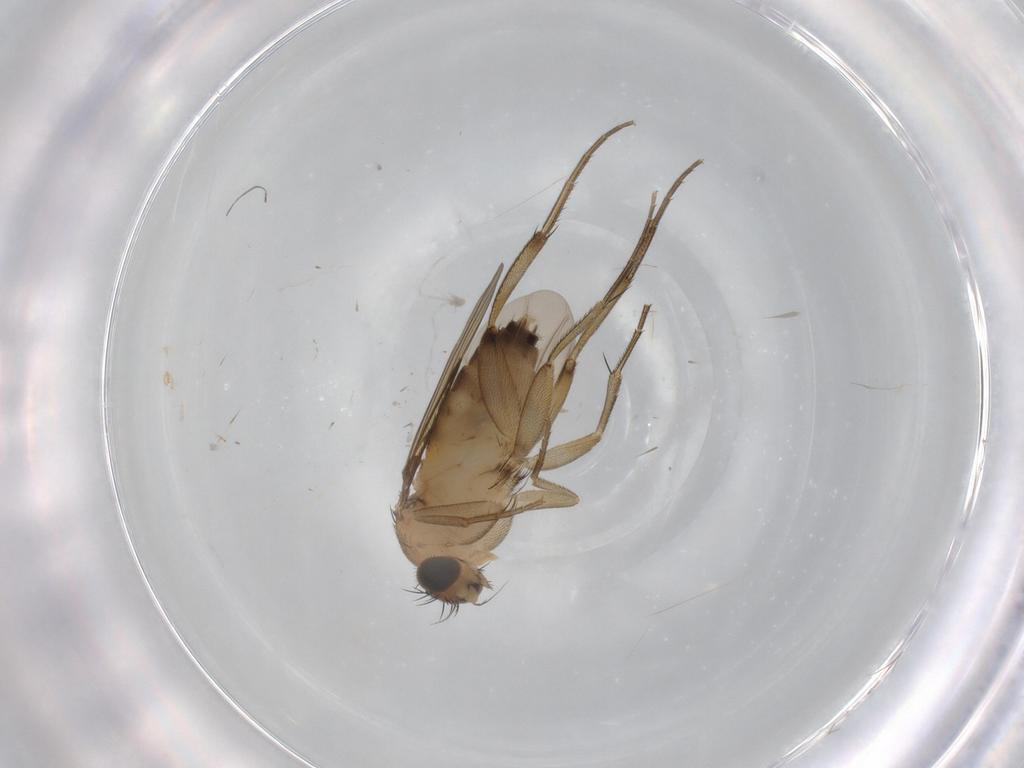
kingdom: Animalia
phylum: Arthropoda
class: Insecta
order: Diptera
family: Phoridae
